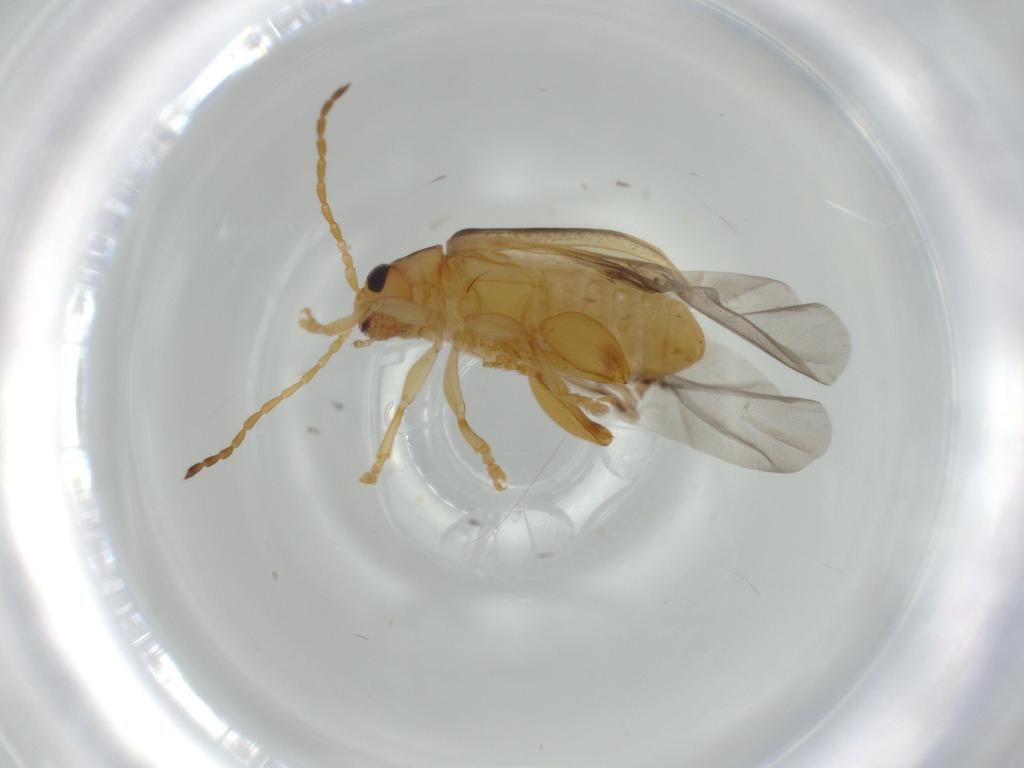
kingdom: Animalia
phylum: Arthropoda
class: Insecta
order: Coleoptera
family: Chrysomelidae
